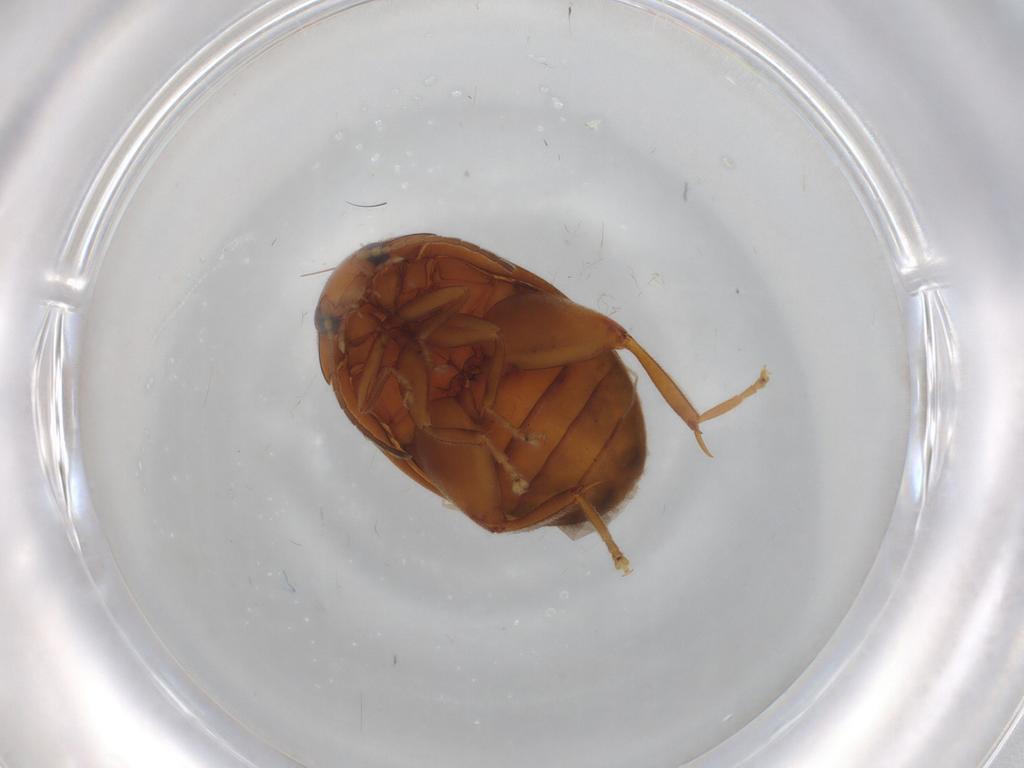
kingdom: Animalia
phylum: Arthropoda
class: Insecta
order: Coleoptera
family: Scirtidae
